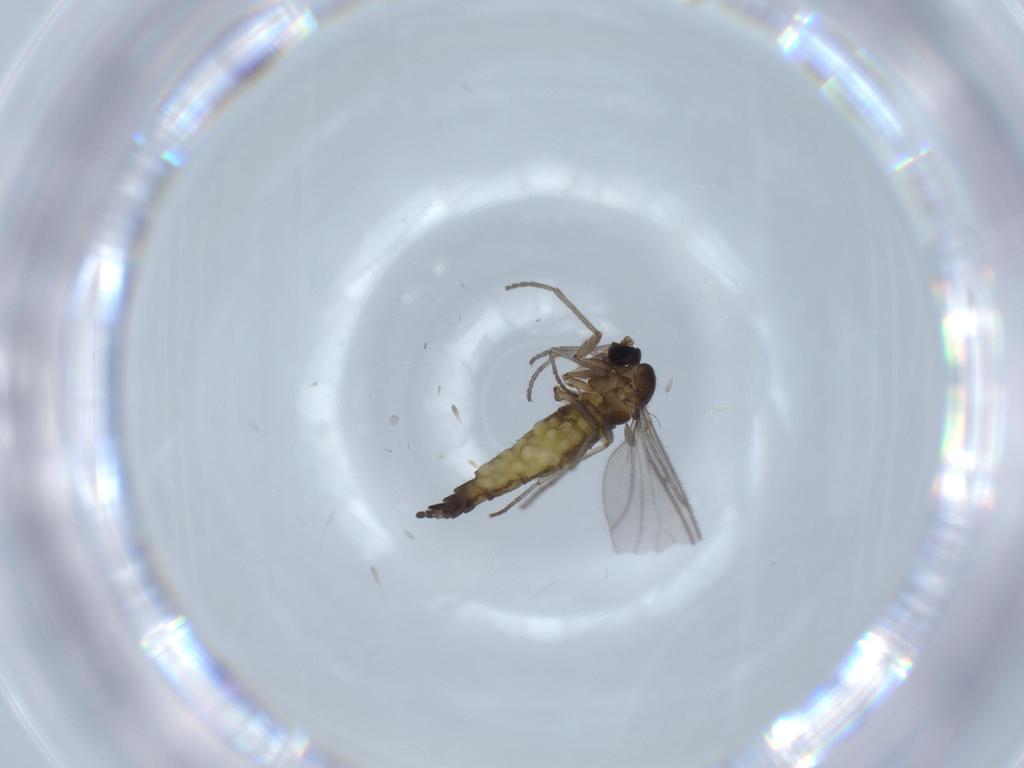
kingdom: Animalia
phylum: Arthropoda
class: Insecta
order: Diptera
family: Sciaridae
